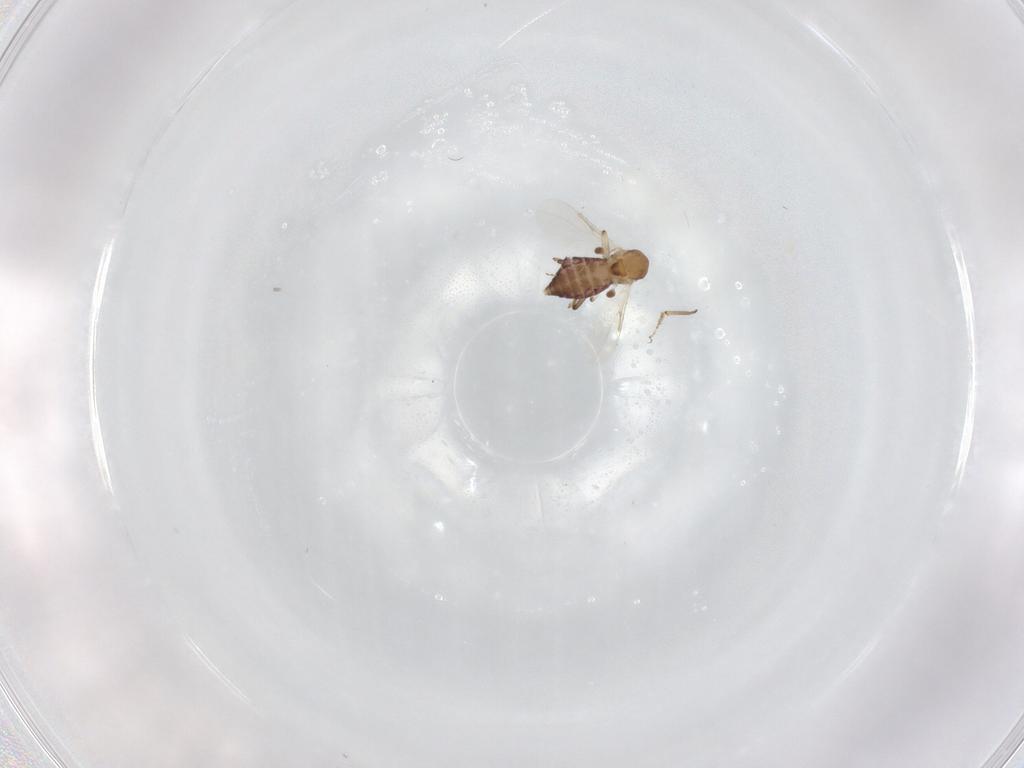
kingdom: Animalia
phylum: Arthropoda
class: Insecta
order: Diptera
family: Ceratopogonidae
